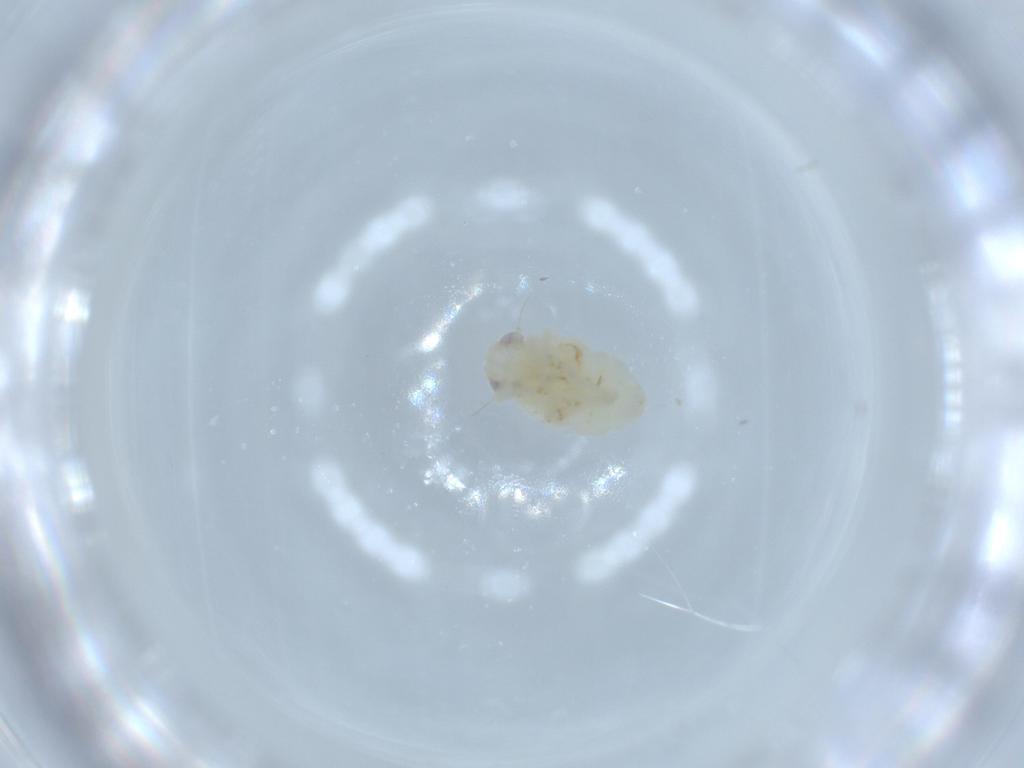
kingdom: Animalia
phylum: Arthropoda
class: Insecta
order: Hemiptera
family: Nogodinidae
